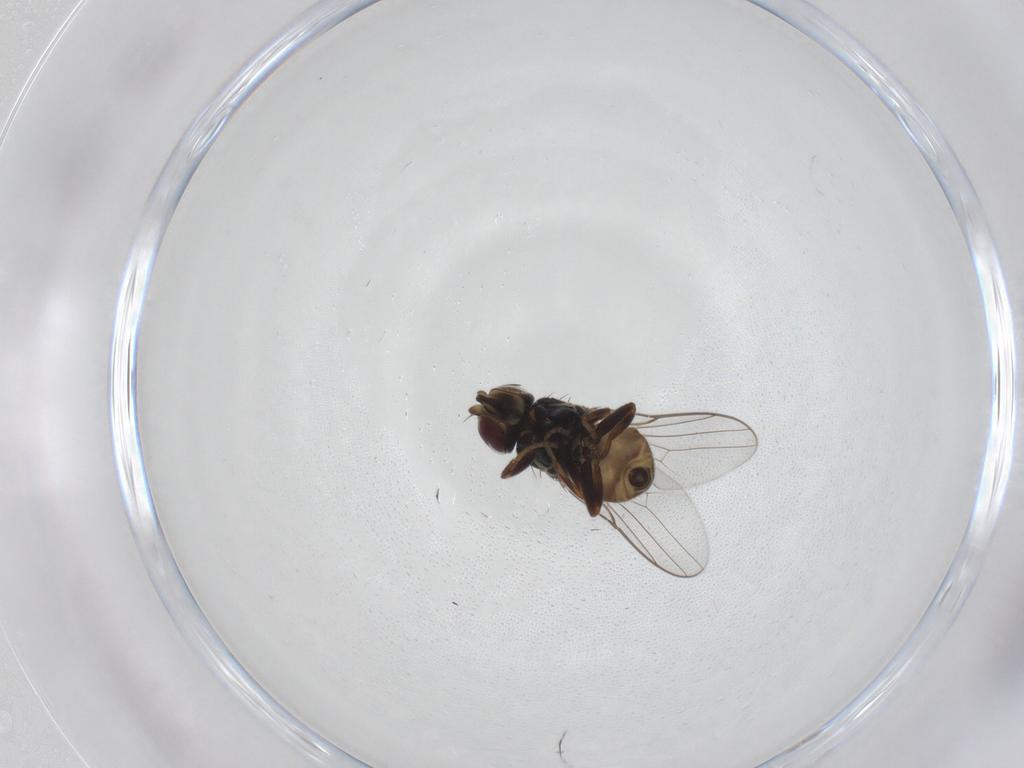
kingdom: Animalia
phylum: Arthropoda
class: Insecta
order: Diptera
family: Chloropidae
